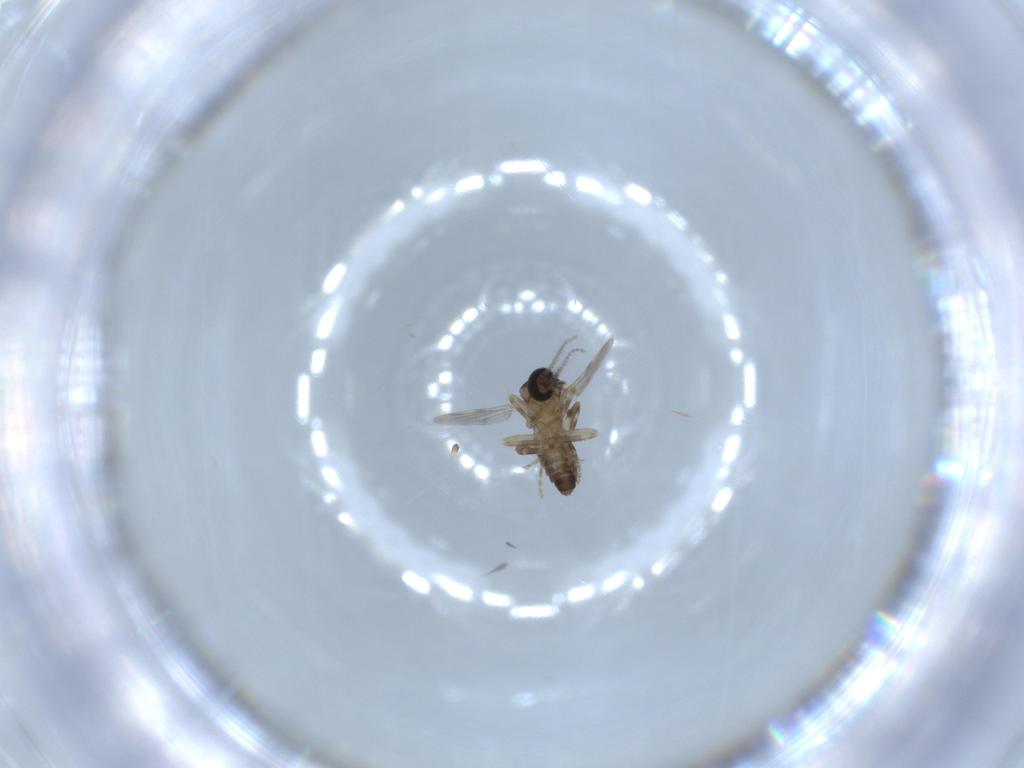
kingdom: Animalia
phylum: Arthropoda
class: Insecta
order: Diptera
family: Ceratopogonidae
